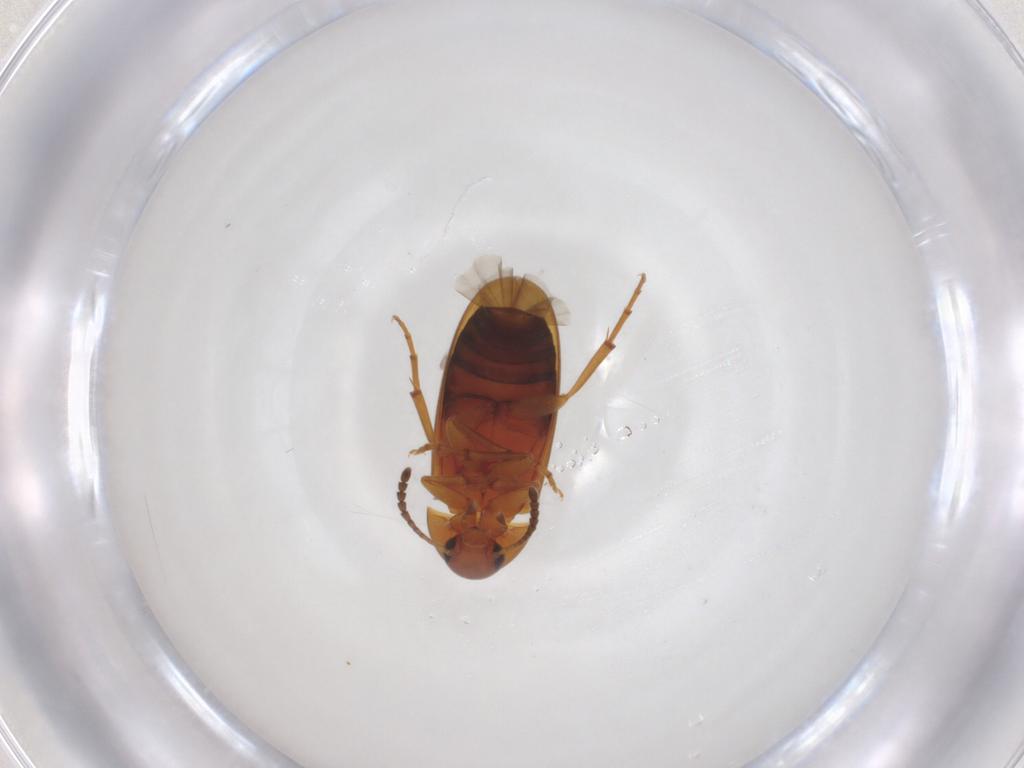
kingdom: Animalia
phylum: Arthropoda
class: Insecta
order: Coleoptera
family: Scraptiidae
